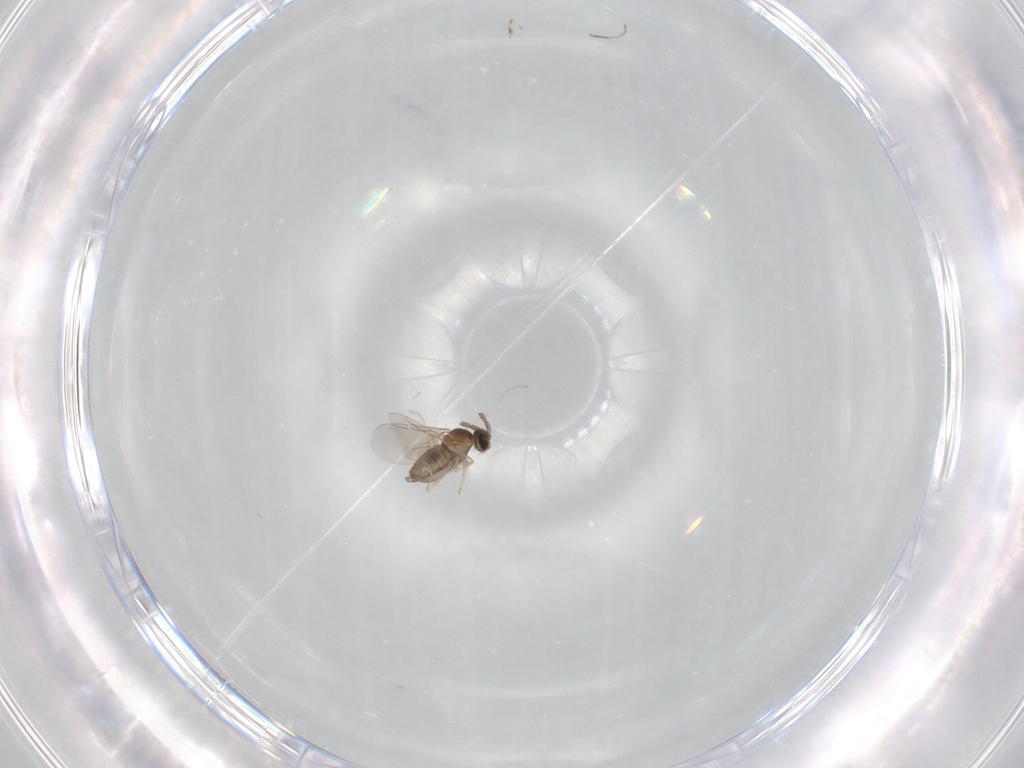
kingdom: Animalia
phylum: Arthropoda
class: Insecta
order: Diptera
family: Cecidomyiidae
